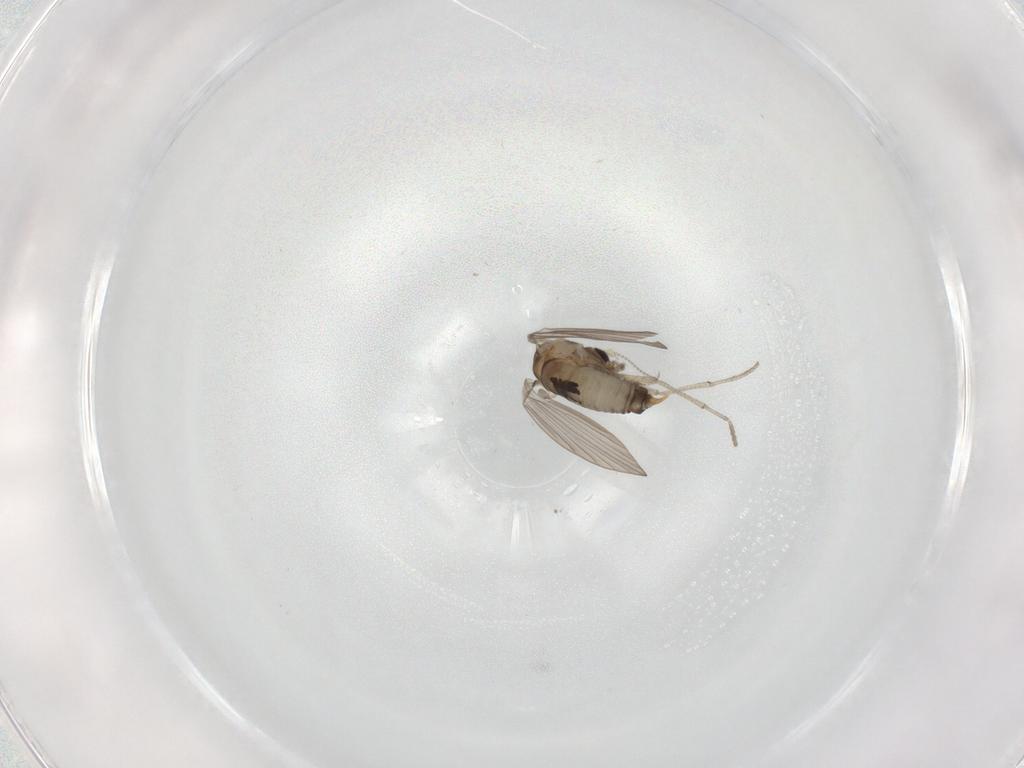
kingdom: Animalia
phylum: Arthropoda
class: Insecta
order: Diptera
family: Psychodidae
